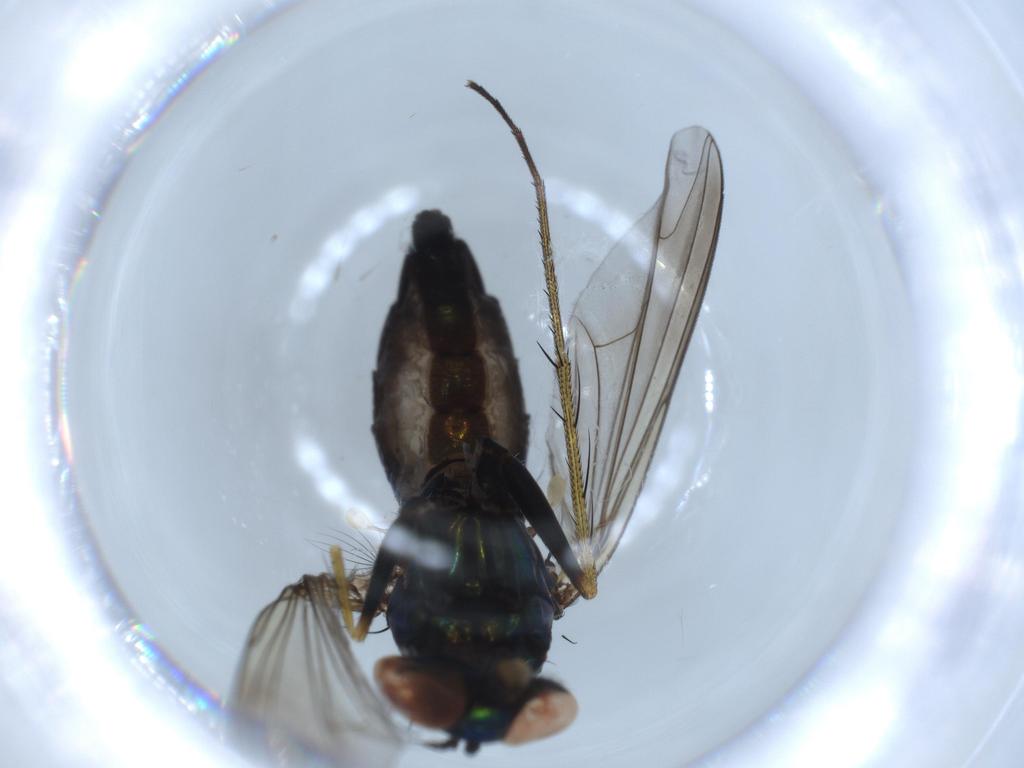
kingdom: Animalia
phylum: Arthropoda
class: Insecta
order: Diptera
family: Dolichopodidae
